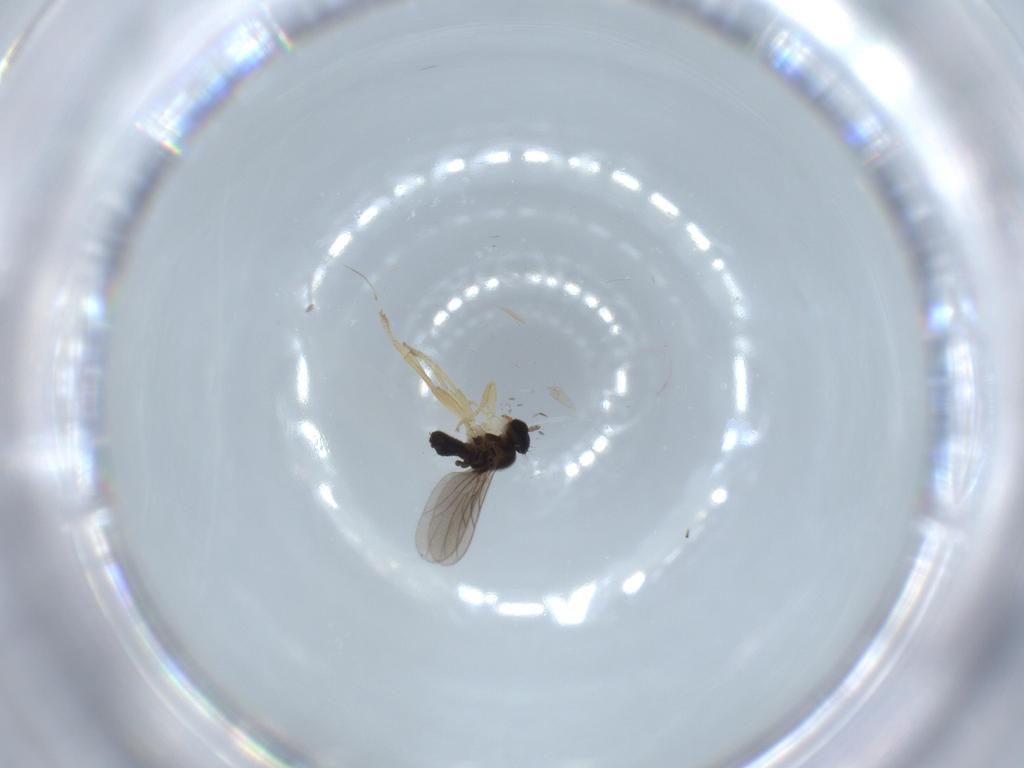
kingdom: Animalia
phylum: Arthropoda
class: Insecta
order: Diptera
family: Hybotidae
